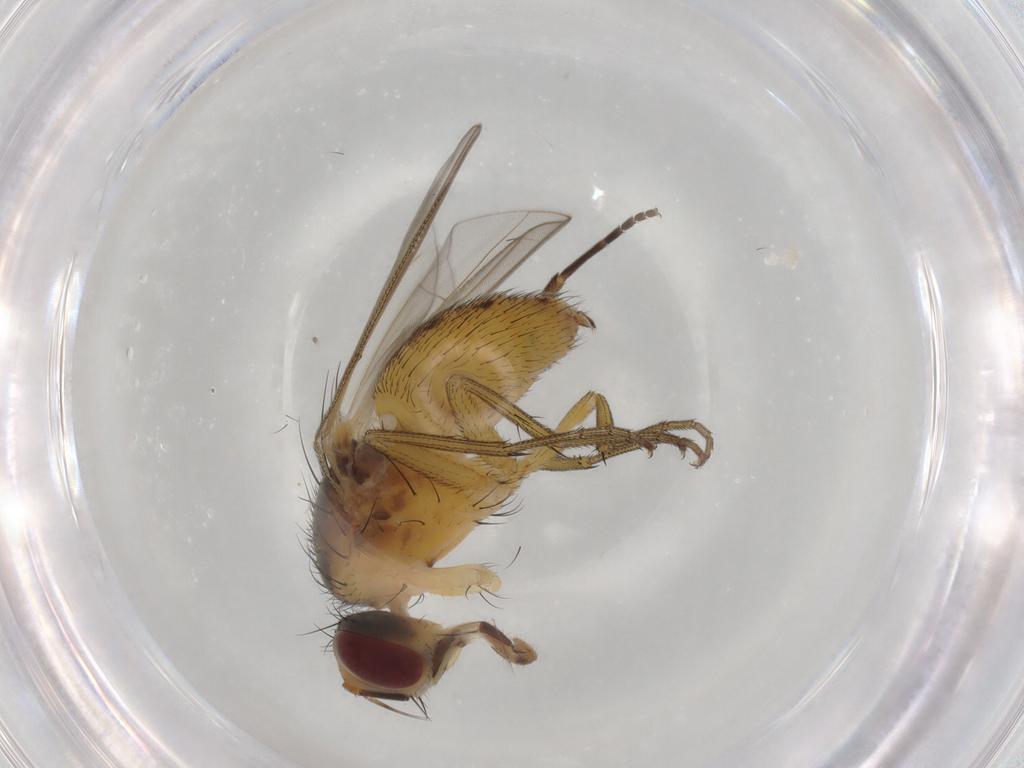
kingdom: Animalia
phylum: Arthropoda
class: Insecta
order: Diptera
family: Muscidae
